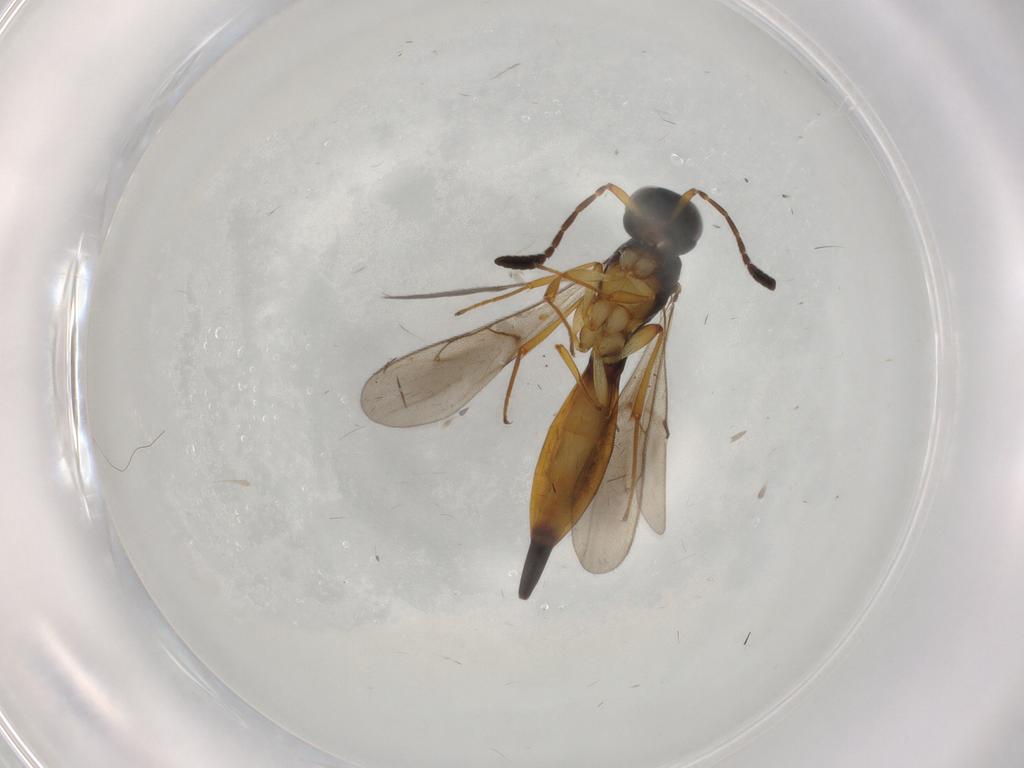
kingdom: Animalia
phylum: Arthropoda
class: Insecta
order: Hymenoptera
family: Scelionidae
